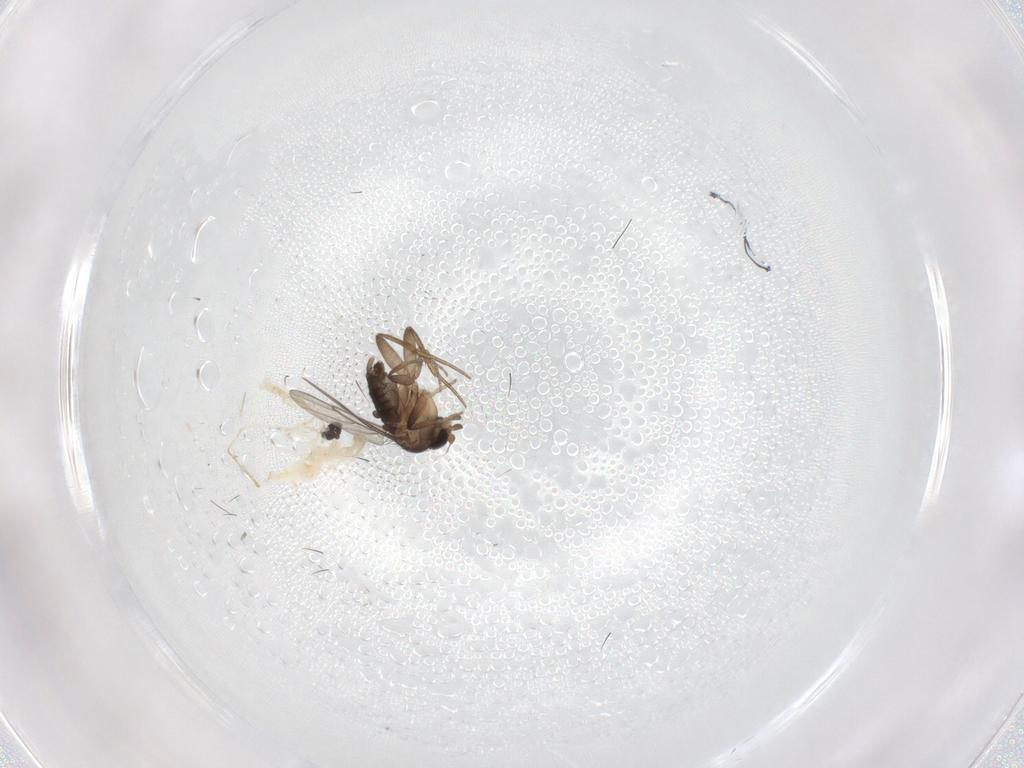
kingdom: Animalia
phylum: Arthropoda
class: Insecta
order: Diptera
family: Cecidomyiidae
